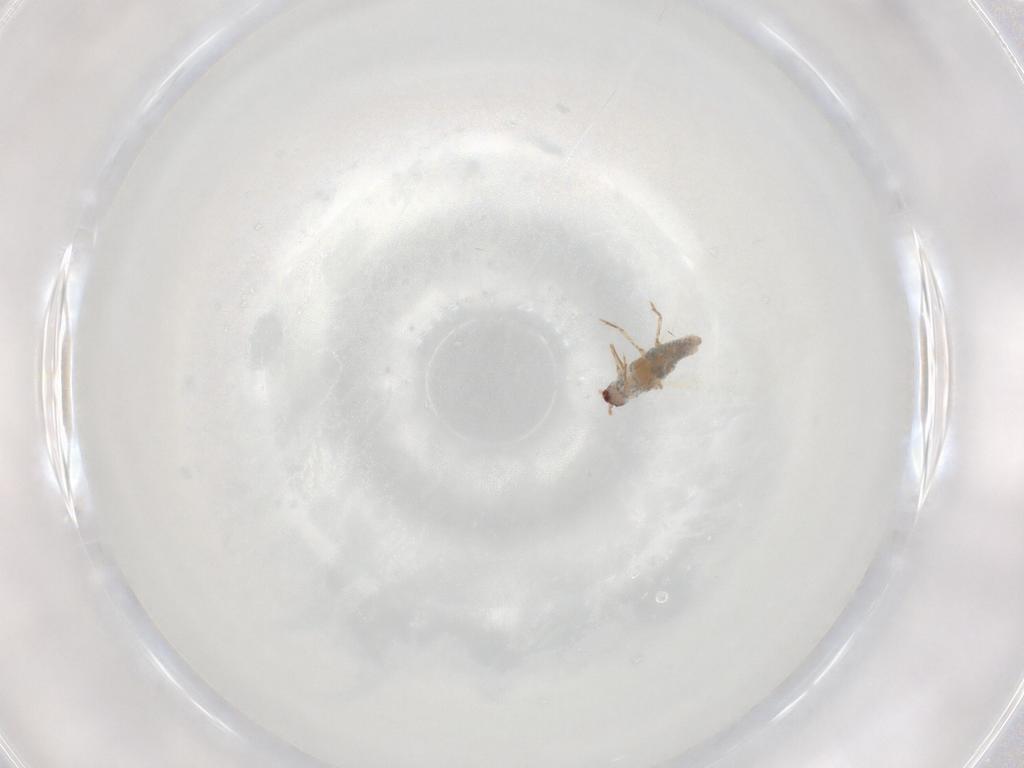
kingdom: Animalia
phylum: Arthropoda
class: Insecta
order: Hemiptera
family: Pseudococcidae
